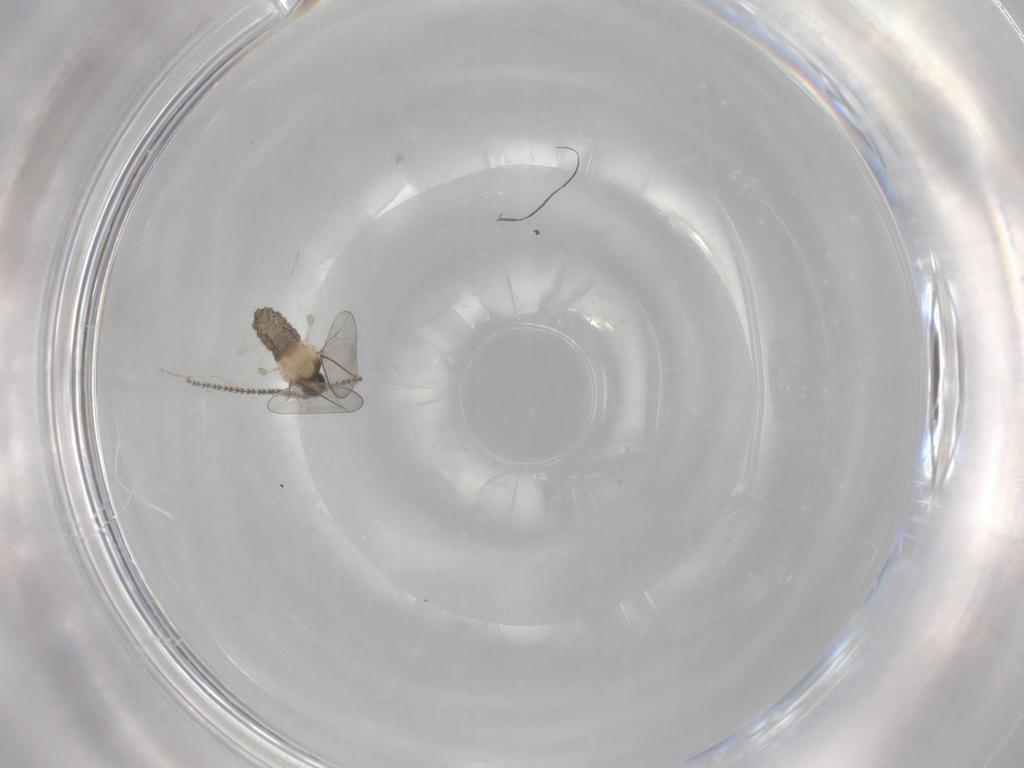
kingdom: Animalia
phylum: Arthropoda
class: Insecta
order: Diptera
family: Cecidomyiidae
